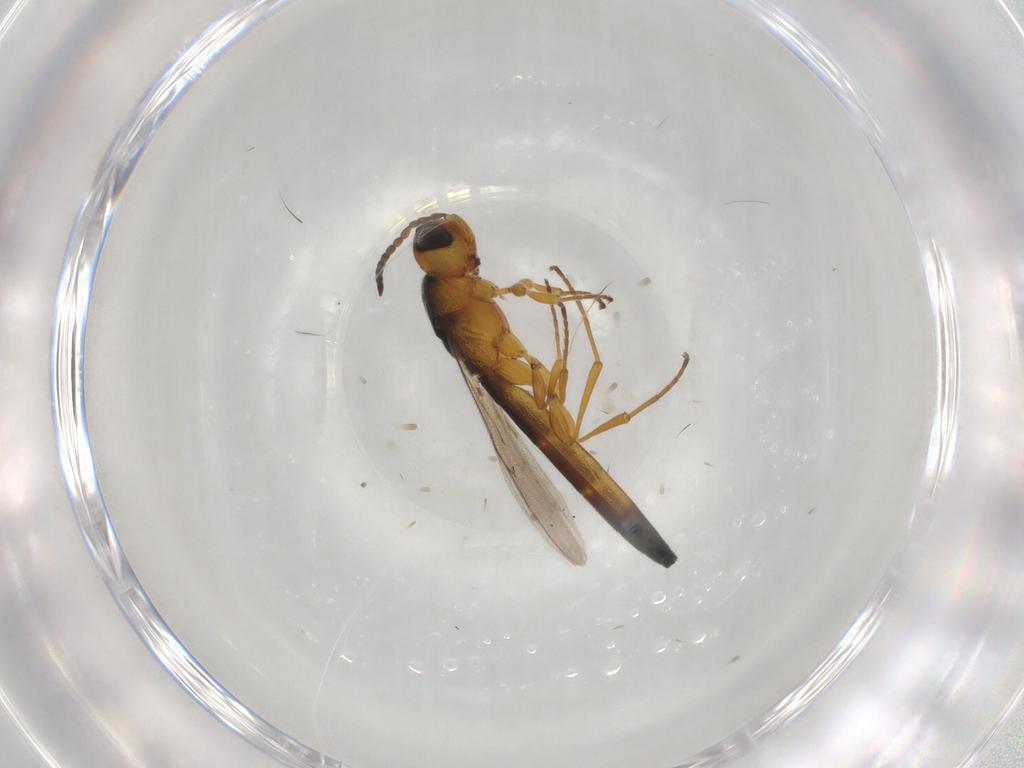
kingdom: Animalia
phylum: Arthropoda
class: Insecta
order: Hymenoptera
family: Scelionidae
